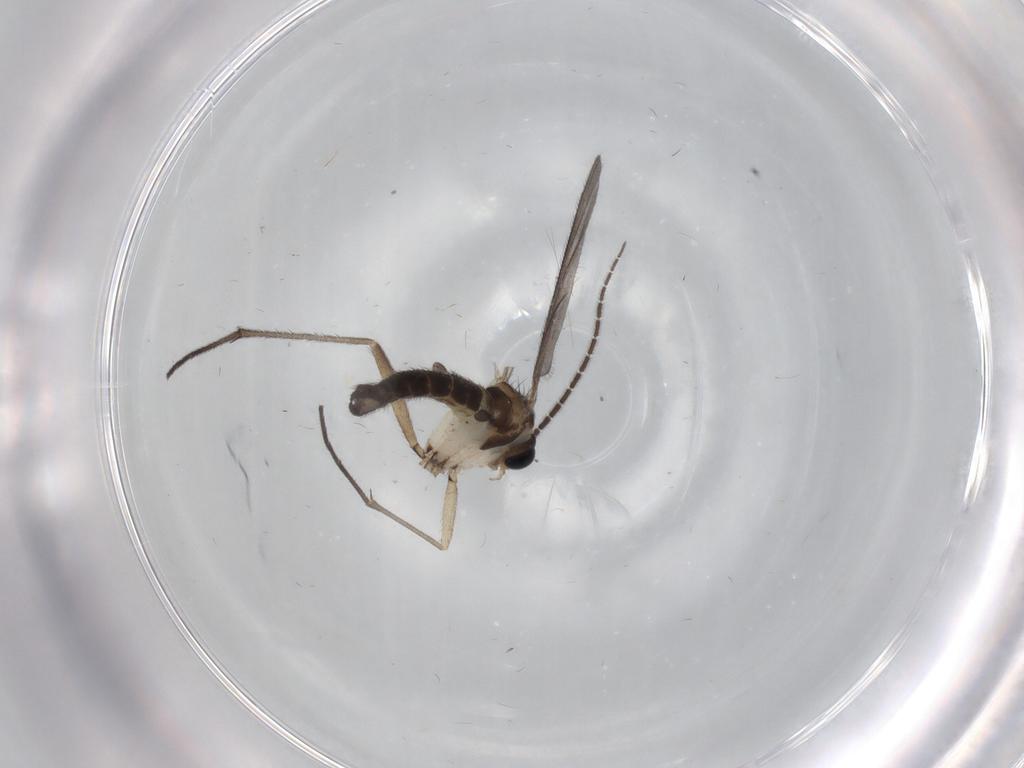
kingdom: Animalia
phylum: Arthropoda
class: Insecta
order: Diptera
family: Sciaridae
